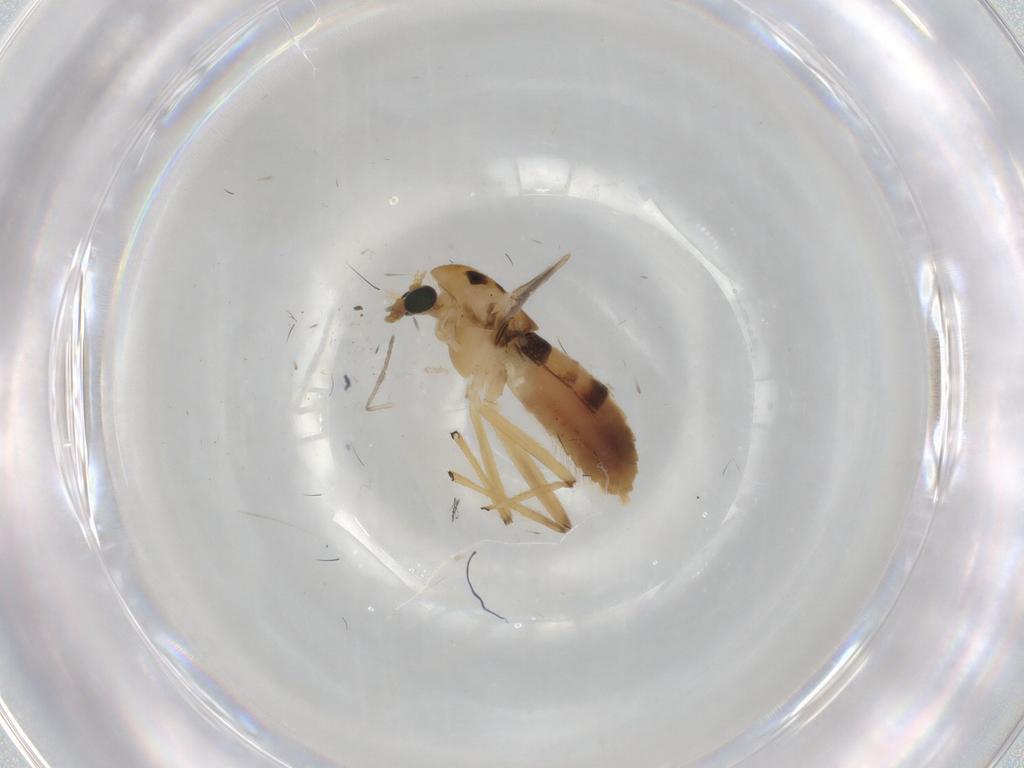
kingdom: Animalia
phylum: Arthropoda
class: Insecta
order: Diptera
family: Chironomidae
